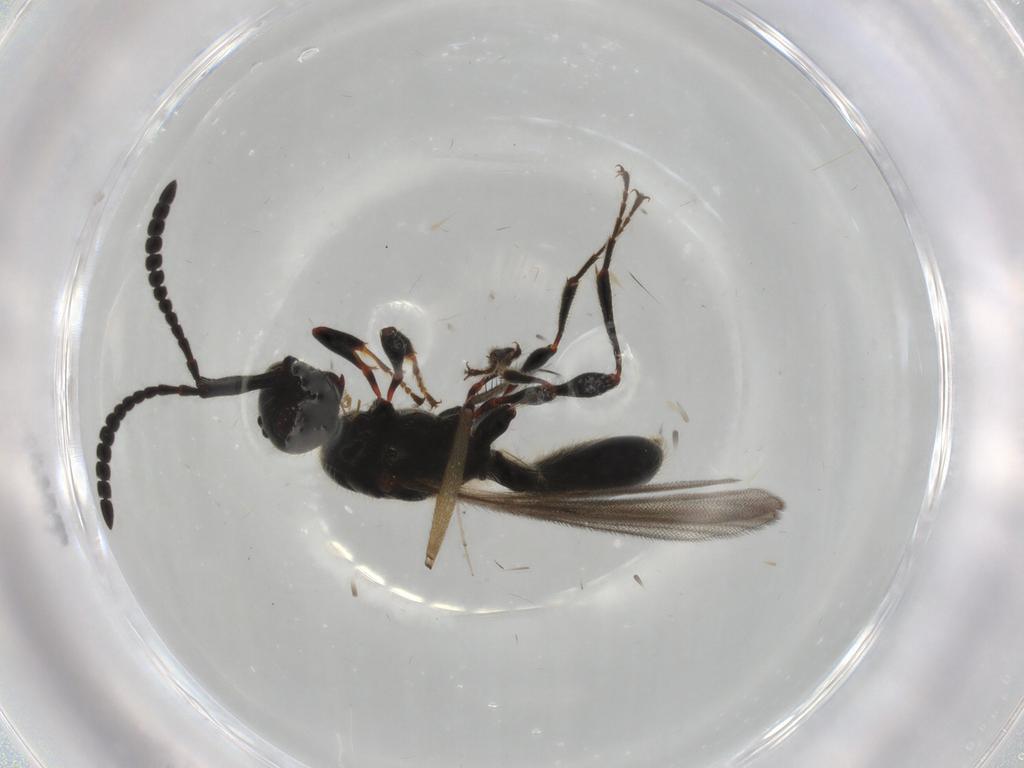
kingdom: Animalia
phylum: Arthropoda
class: Insecta
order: Hymenoptera
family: Diapriidae
